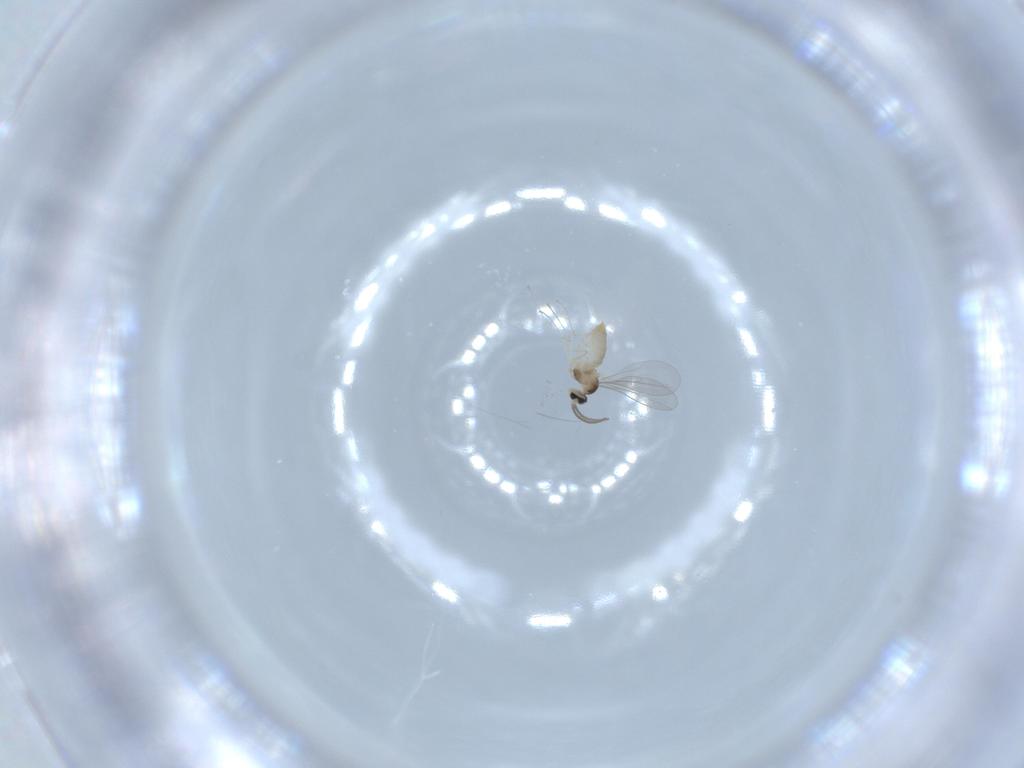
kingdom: Animalia
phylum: Arthropoda
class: Insecta
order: Diptera
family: Cecidomyiidae
